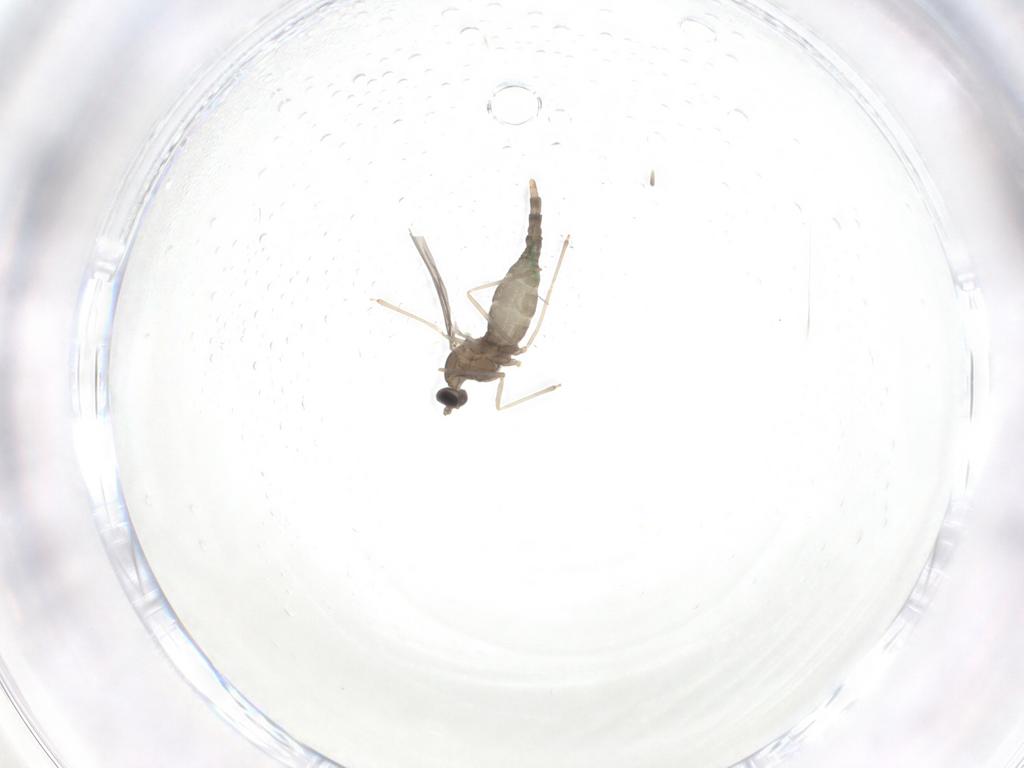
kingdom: Animalia
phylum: Arthropoda
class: Insecta
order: Diptera
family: Cecidomyiidae
